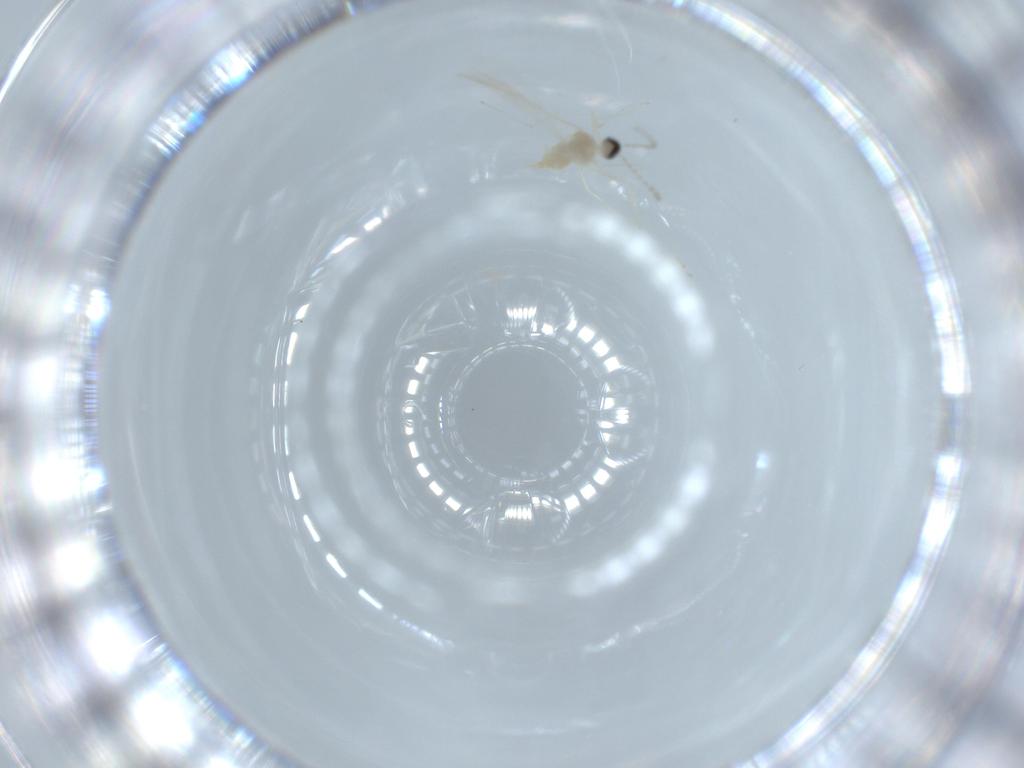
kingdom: Animalia
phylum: Arthropoda
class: Insecta
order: Diptera
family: Cecidomyiidae
